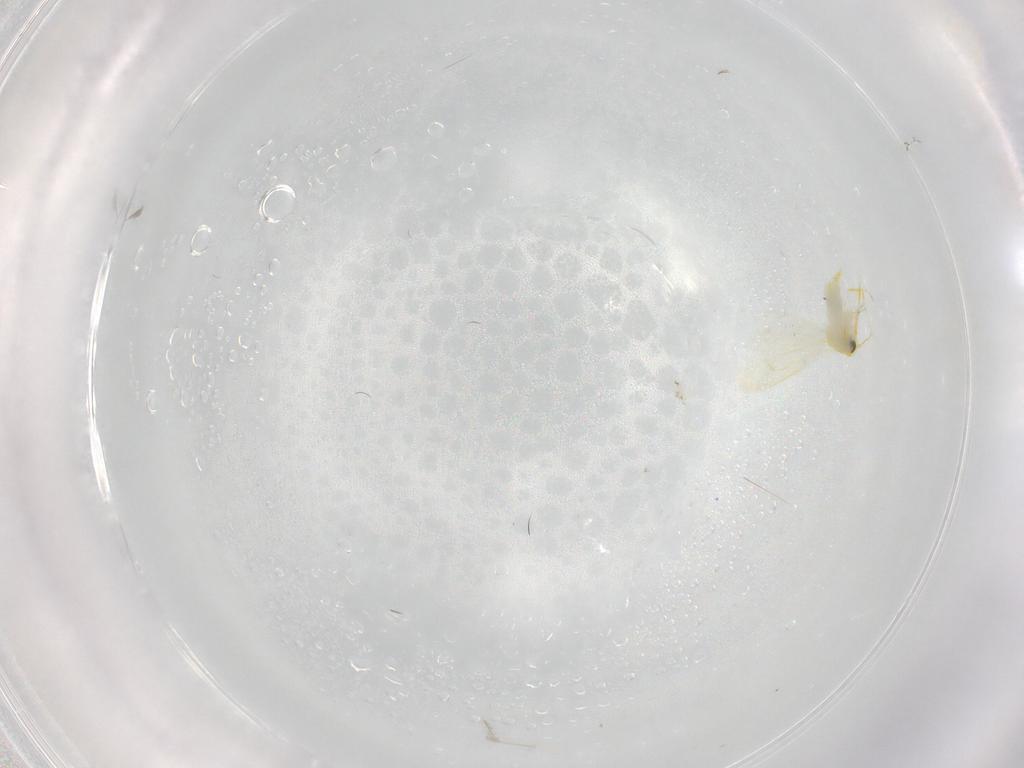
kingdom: Animalia
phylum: Arthropoda
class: Insecta
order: Hemiptera
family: Aleyrodidae
